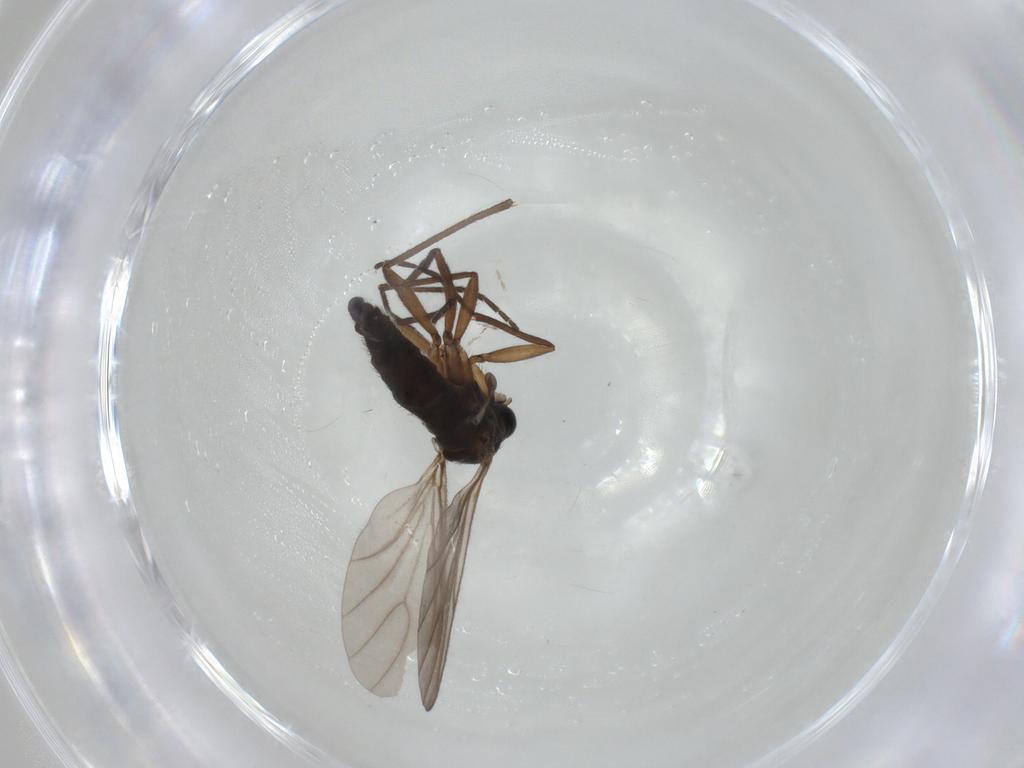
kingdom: Animalia
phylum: Arthropoda
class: Insecta
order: Diptera
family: Sciaridae
